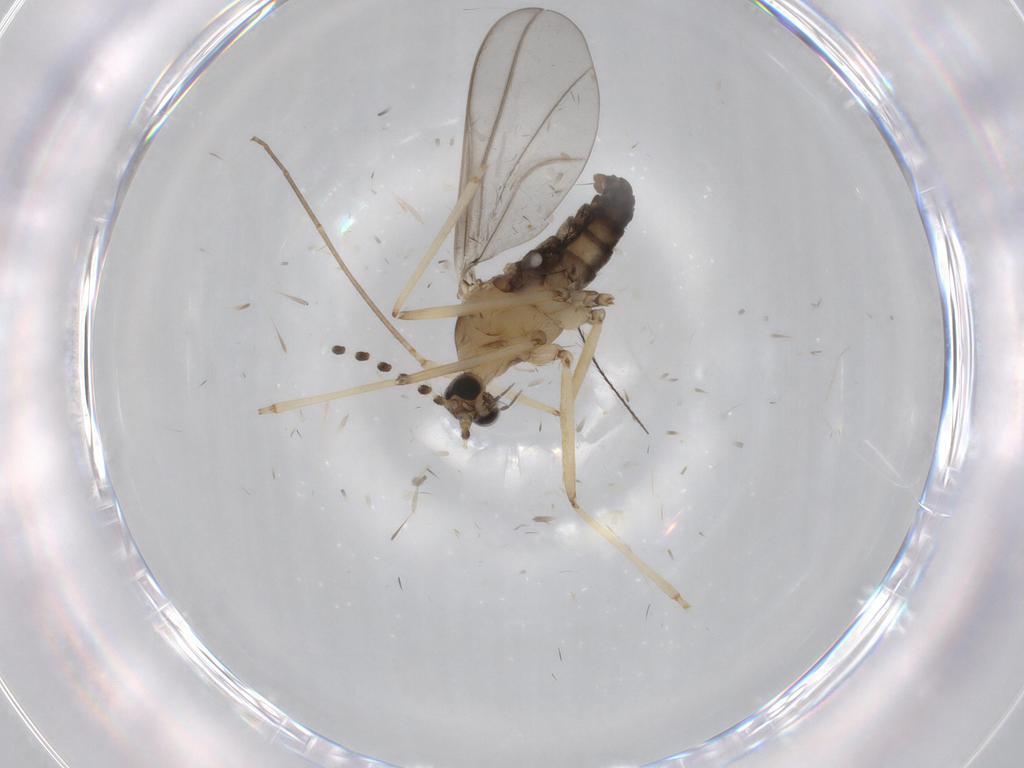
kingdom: Animalia
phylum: Arthropoda
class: Insecta
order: Diptera
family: Cecidomyiidae
